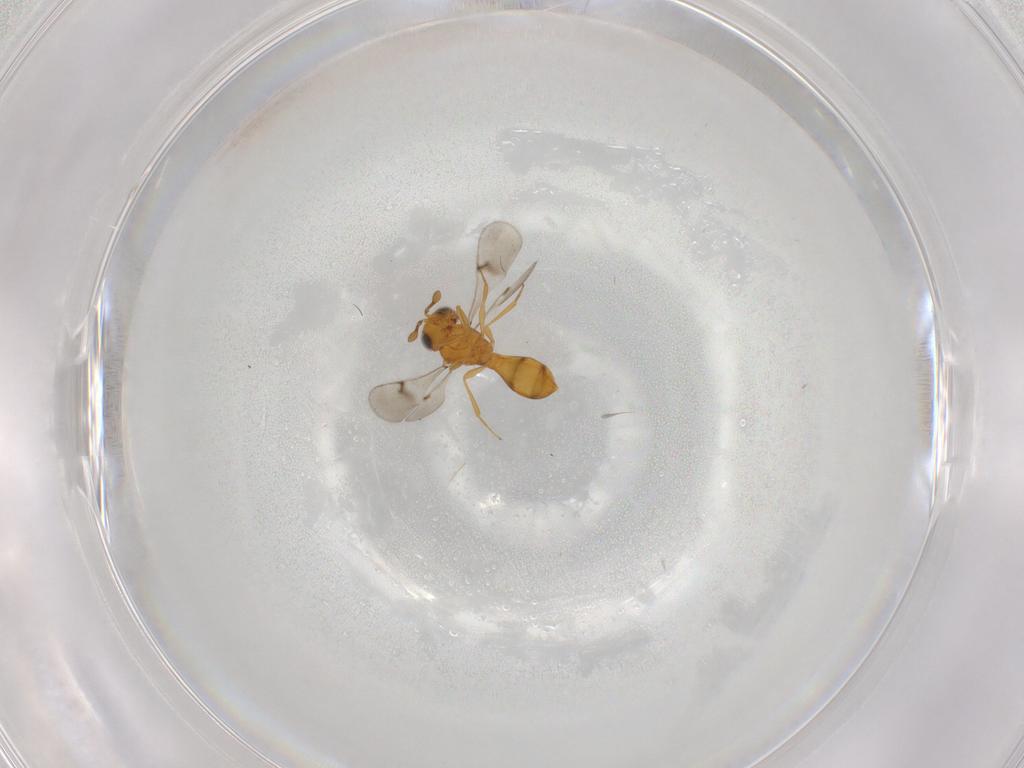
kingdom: Animalia
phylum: Arthropoda
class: Insecta
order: Hymenoptera
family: Scelionidae
